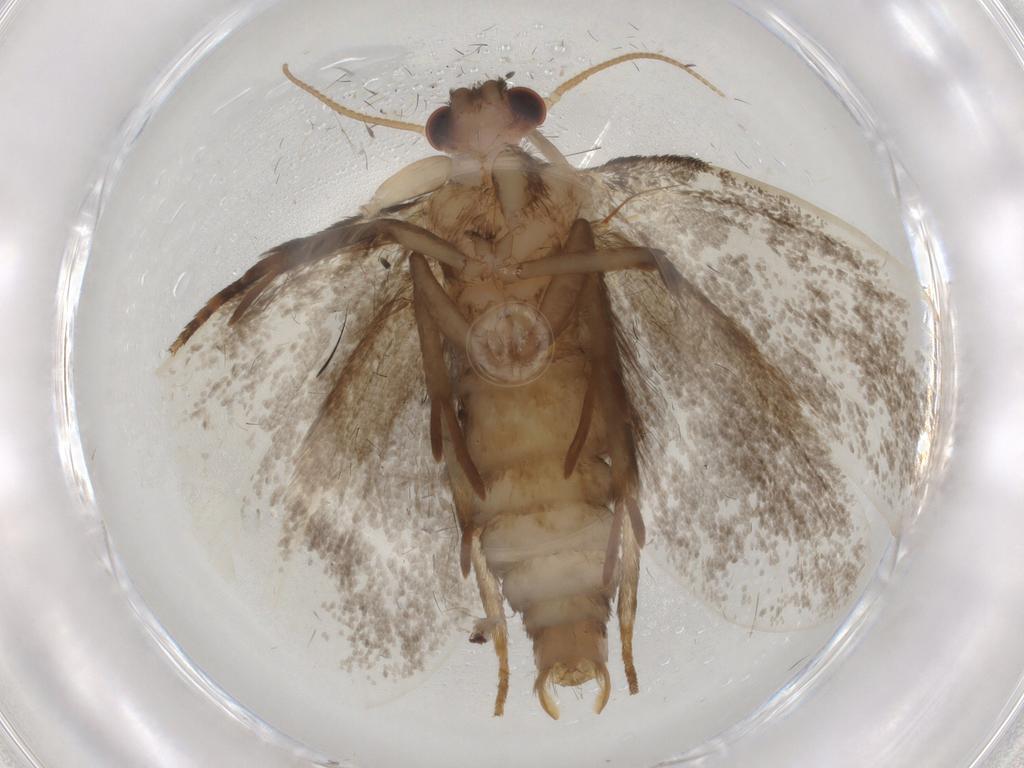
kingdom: Animalia
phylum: Arthropoda
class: Insecta
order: Lepidoptera
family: Tineidae
